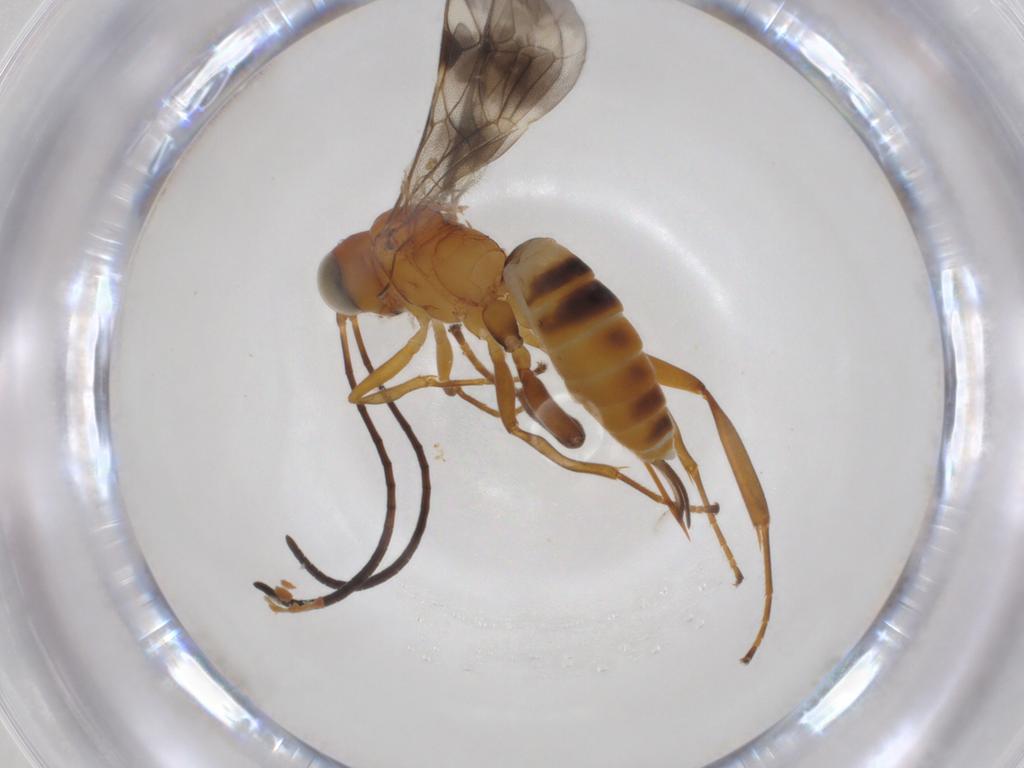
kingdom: Animalia
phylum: Arthropoda
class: Insecta
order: Hymenoptera
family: Ichneumonidae
